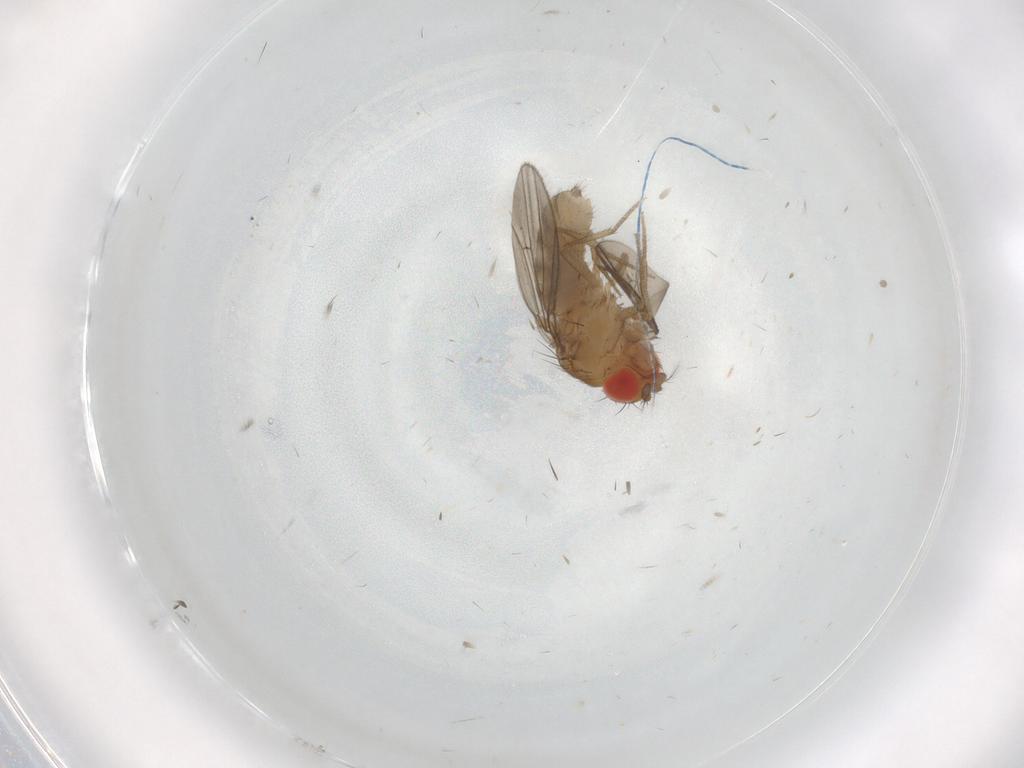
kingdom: Animalia
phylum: Arthropoda
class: Insecta
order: Diptera
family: Drosophilidae
